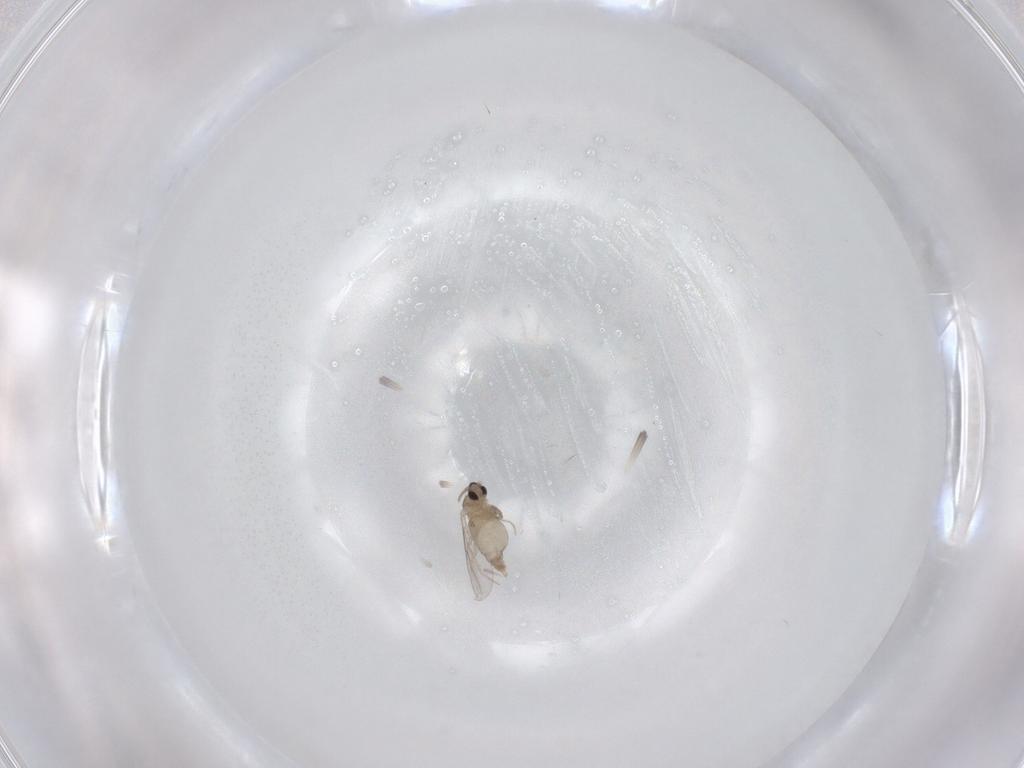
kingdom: Animalia
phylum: Arthropoda
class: Insecta
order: Diptera
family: Cecidomyiidae
